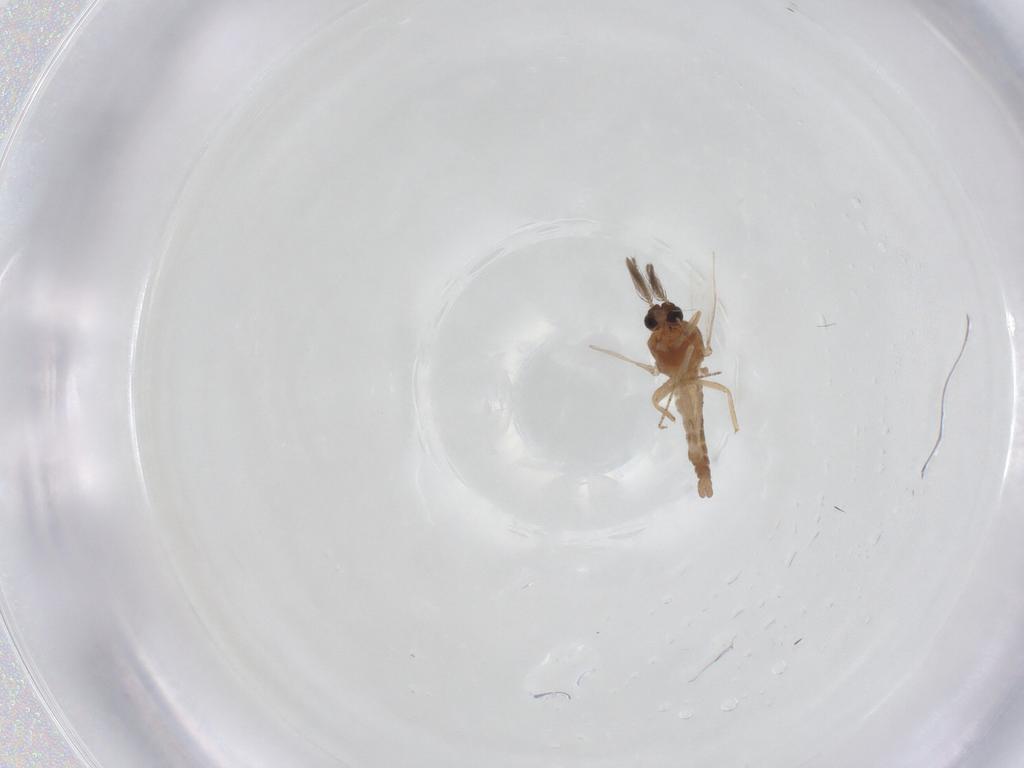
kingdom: Animalia
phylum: Arthropoda
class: Insecta
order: Diptera
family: Ceratopogonidae
